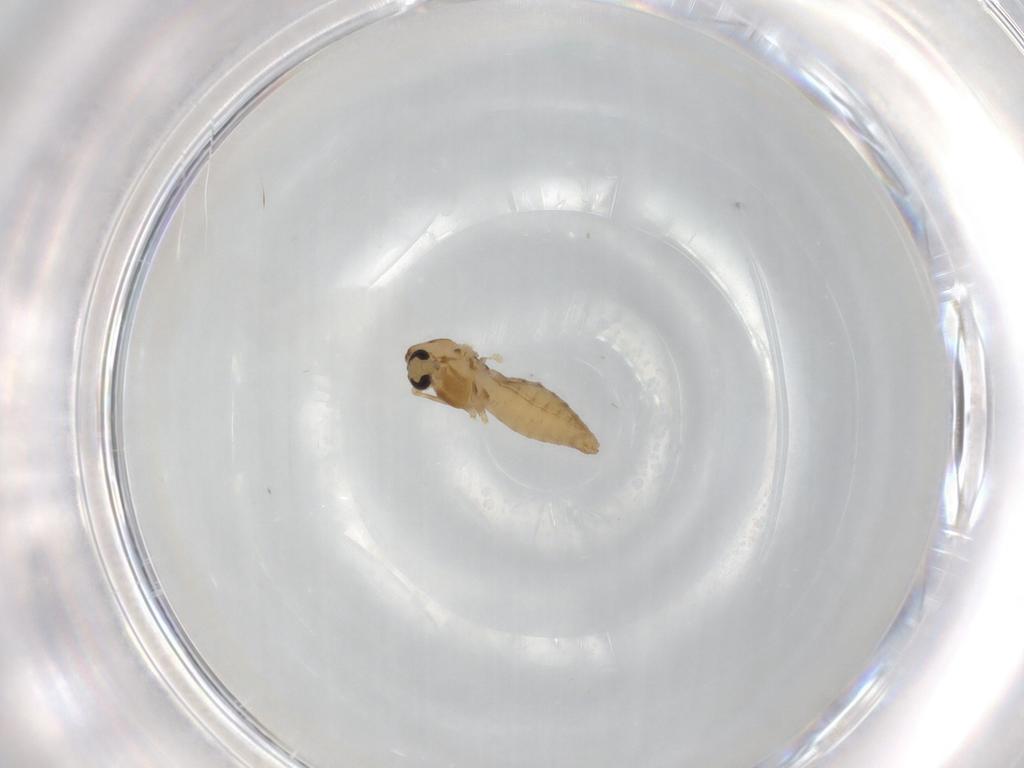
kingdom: Animalia
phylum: Arthropoda
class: Insecta
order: Diptera
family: Chironomidae
